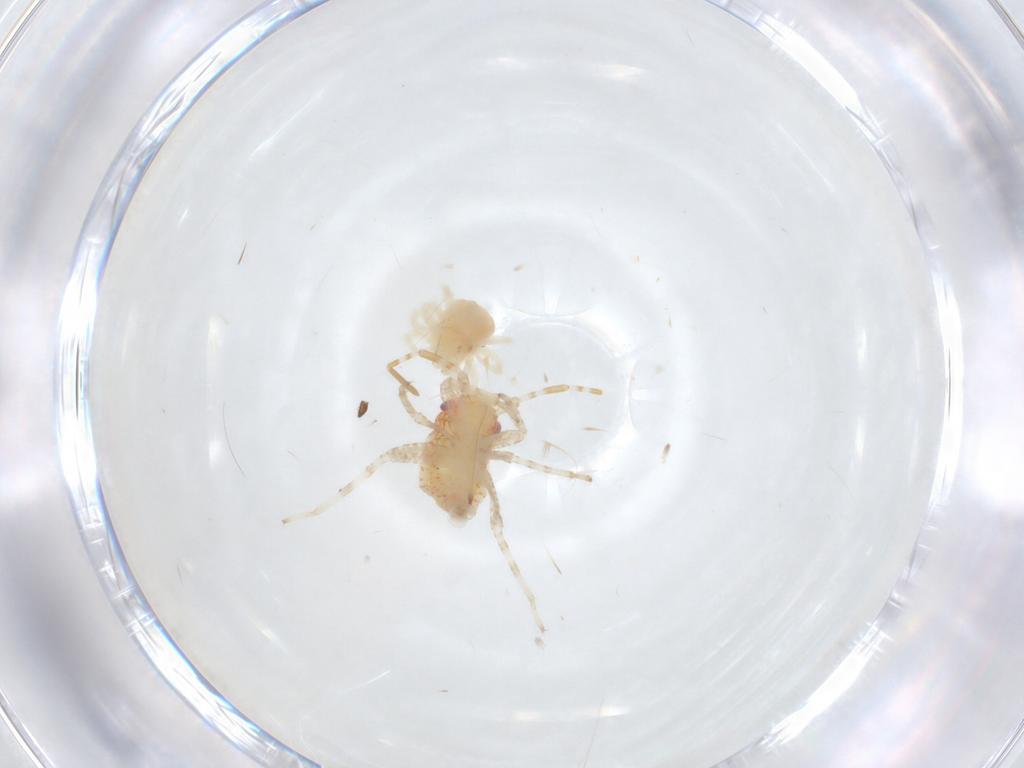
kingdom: Animalia
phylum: Arthropoda
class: Insecta
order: Hemiptera
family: Miridae
